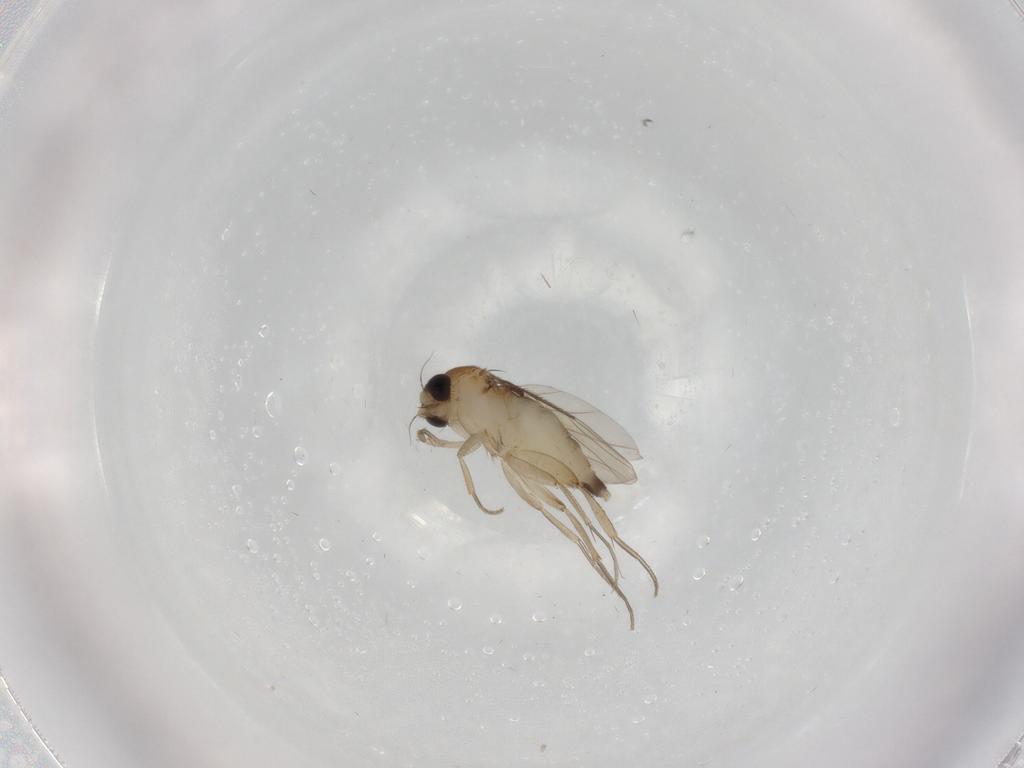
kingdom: Animalia
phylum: Arthropoda
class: Insecta
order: Diptera
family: Phoridae
